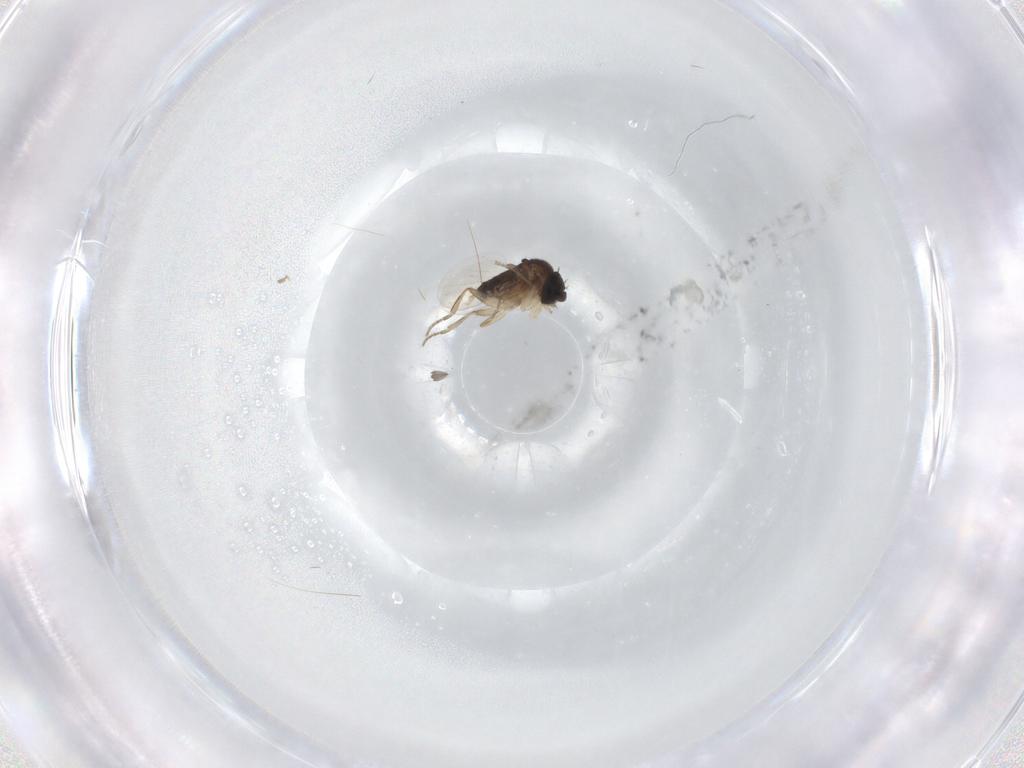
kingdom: Animalia
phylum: Arthropoda
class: Insecta
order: Diptera
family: Phoridae
